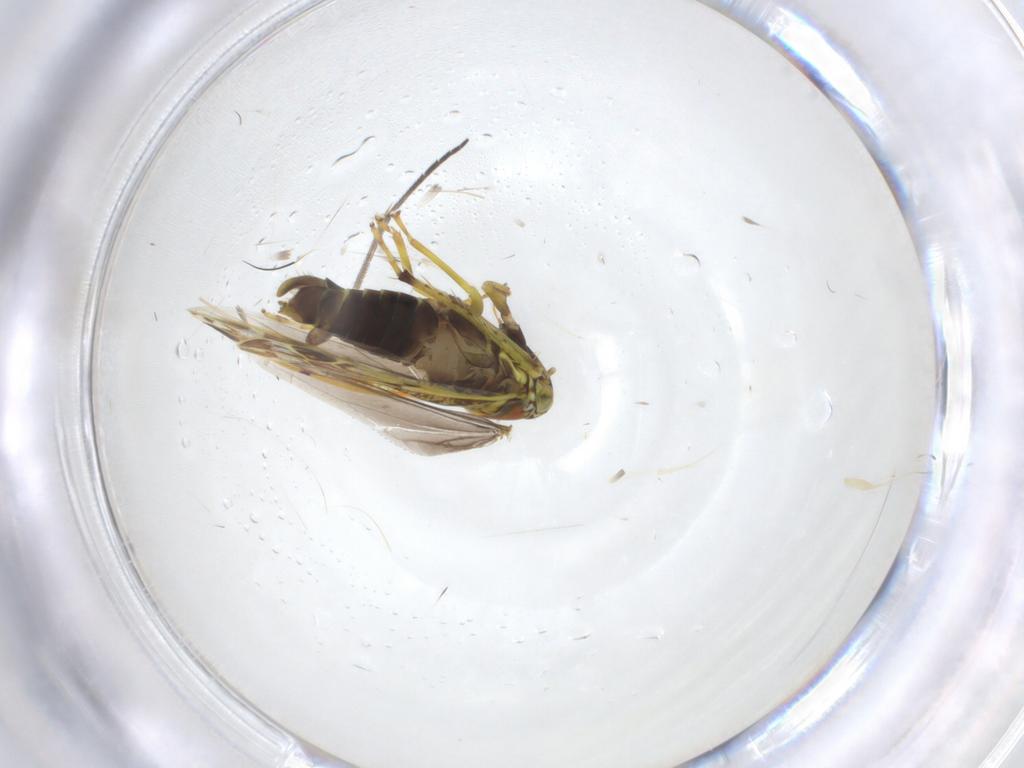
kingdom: Animalia
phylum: Arthropoda
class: Insecta
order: Hemiptera
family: Cicadellidae
